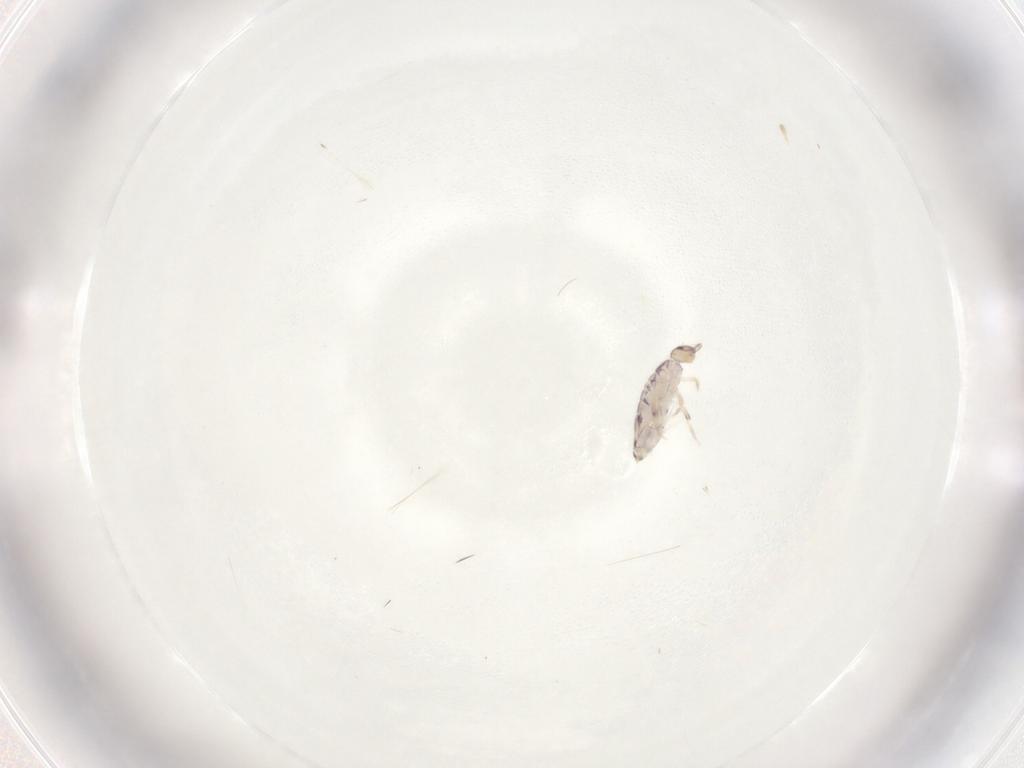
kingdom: Animalia
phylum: Arthropoda
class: Collembola
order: Entomobryomorpha
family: Entomobryidae
